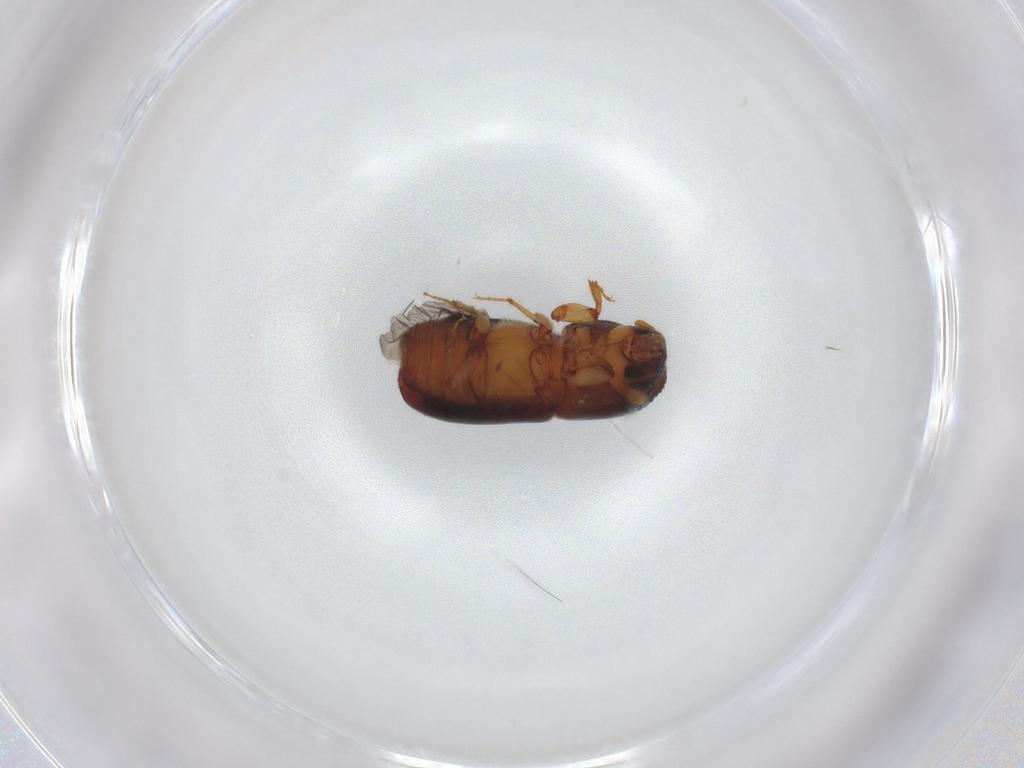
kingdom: Animalia
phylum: Arthropoda
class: Insecta
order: Coleoptera
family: Curculionidae
